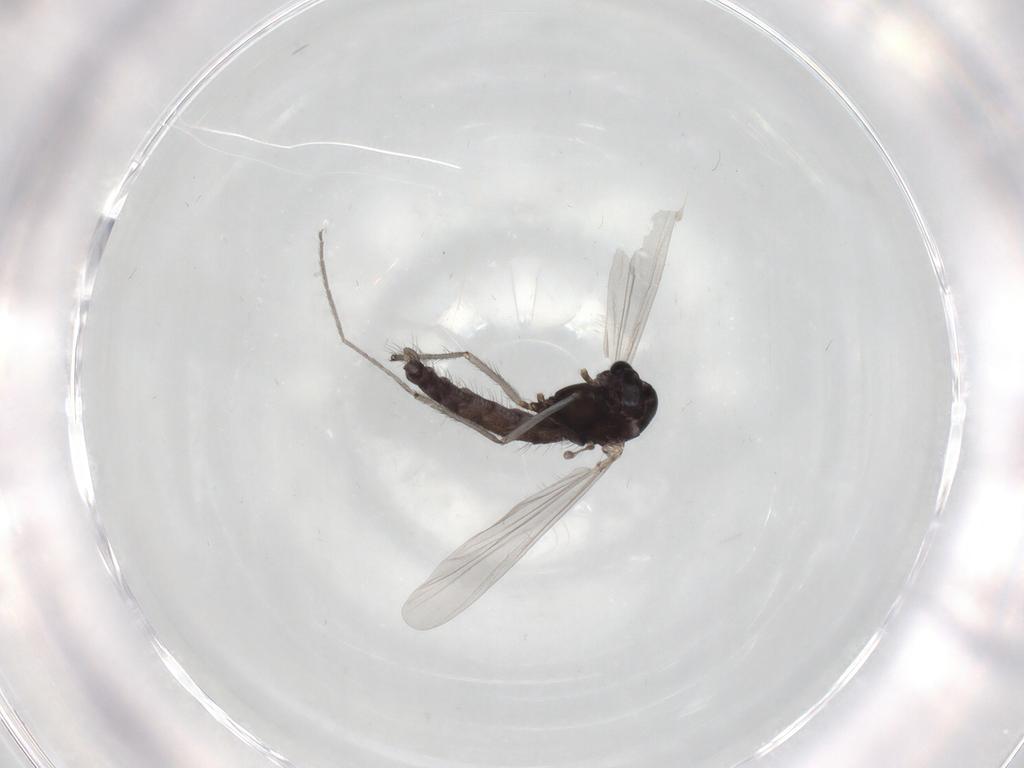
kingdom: Animalia
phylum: Arthropoda
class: Insecta
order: Diptera
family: Sciaridae
